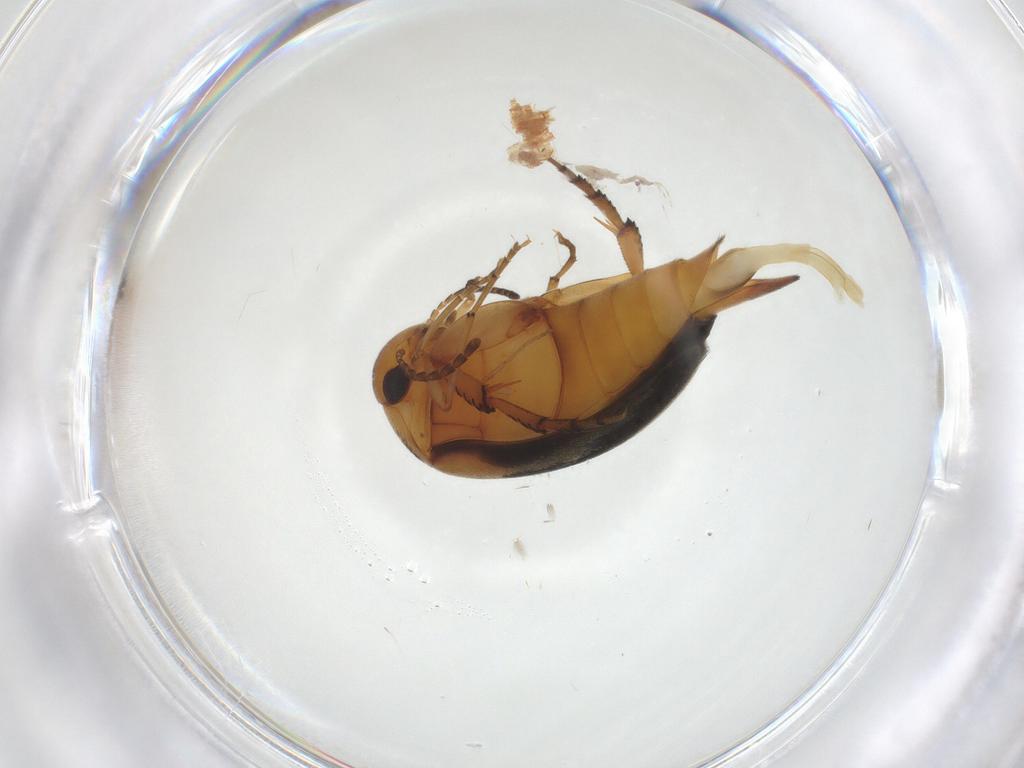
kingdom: Animalia
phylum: Arthropoda
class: Insecta
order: Coleoptera
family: Mordellidae
